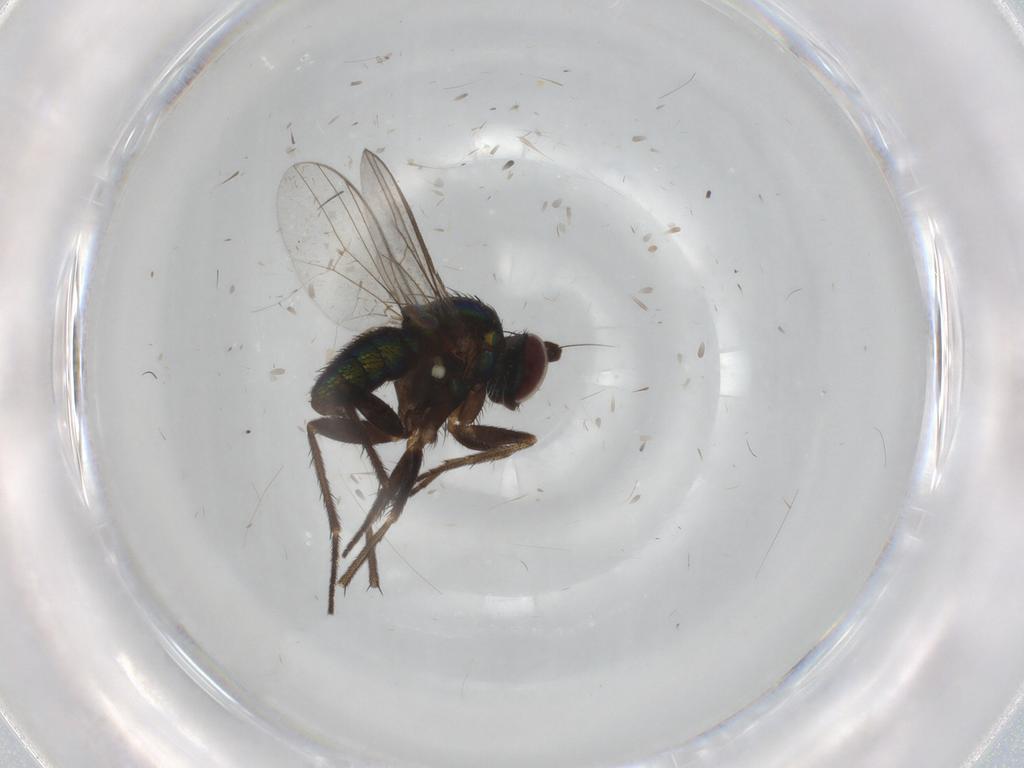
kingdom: Animalia
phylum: Arthropoda
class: Insecta
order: Diptera
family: Dolichopodidae
